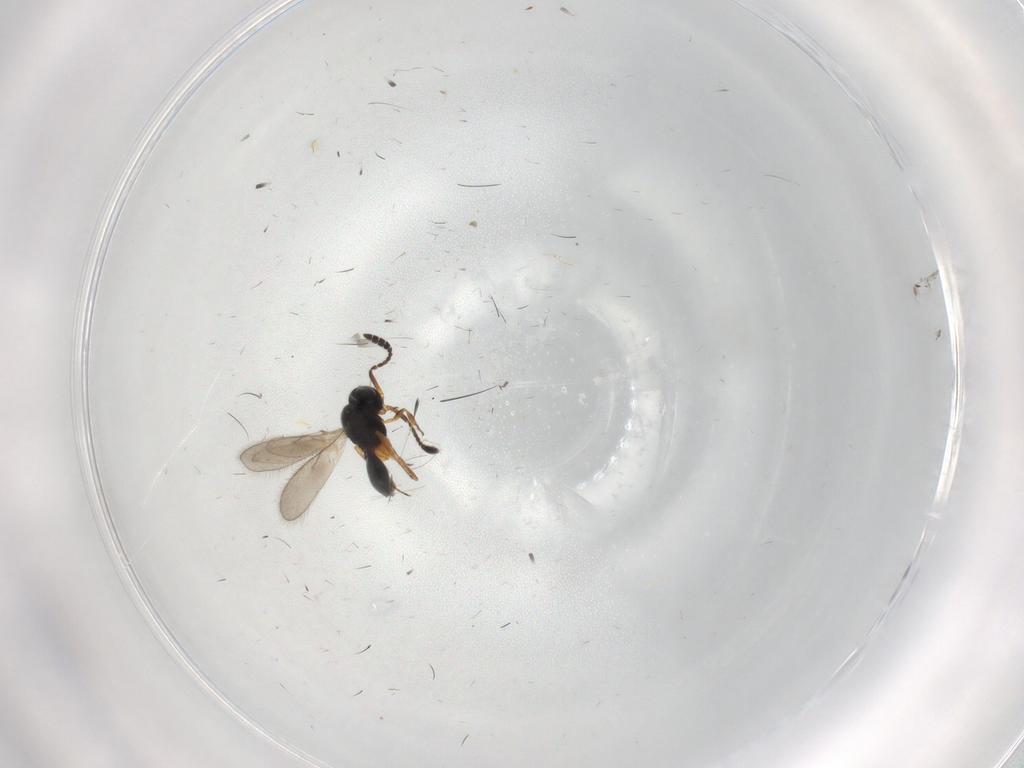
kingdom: Animalia
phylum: Arthropoda
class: Insecta
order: Hymenoptera
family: Scelionidae
